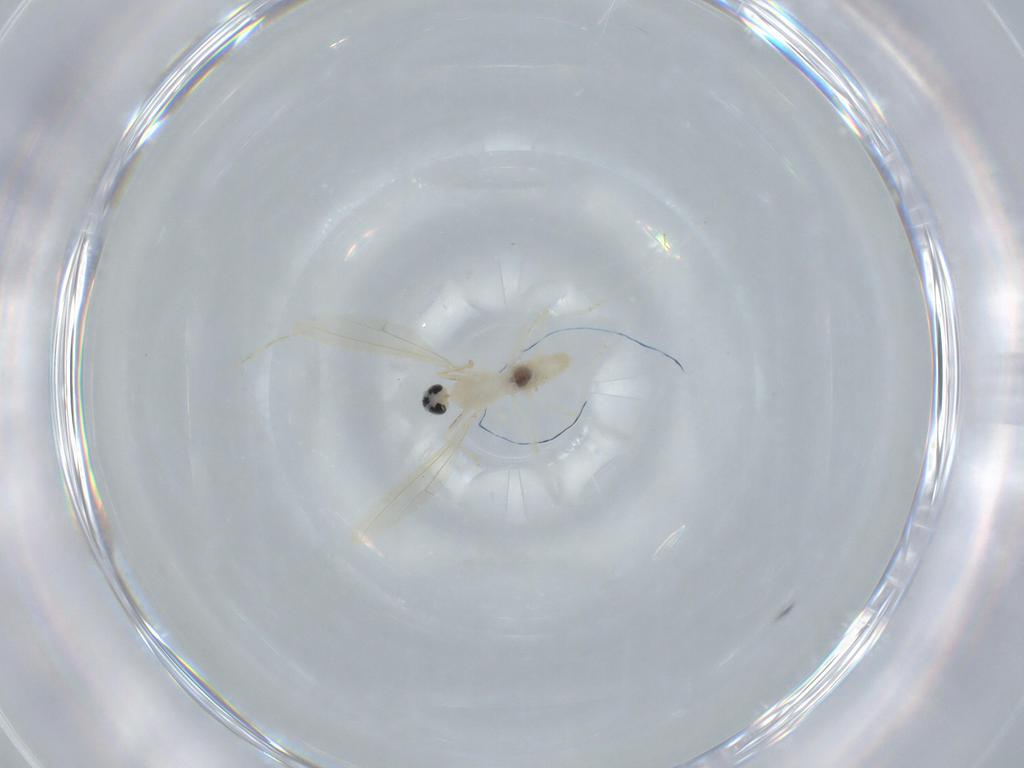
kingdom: Animalia
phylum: Arthropoda
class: Insecta
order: Diptera
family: Cecidomyiidae
